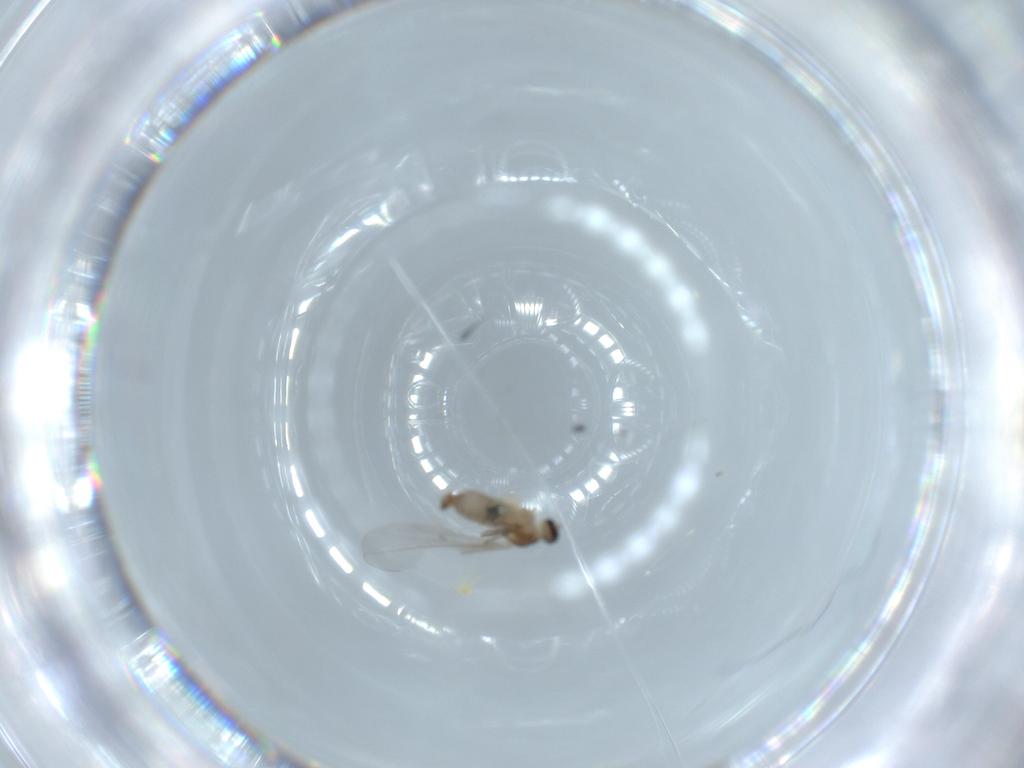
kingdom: Animalia
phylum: Arthropoda
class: Insecta
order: Diptera
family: Cecidomyiidae
